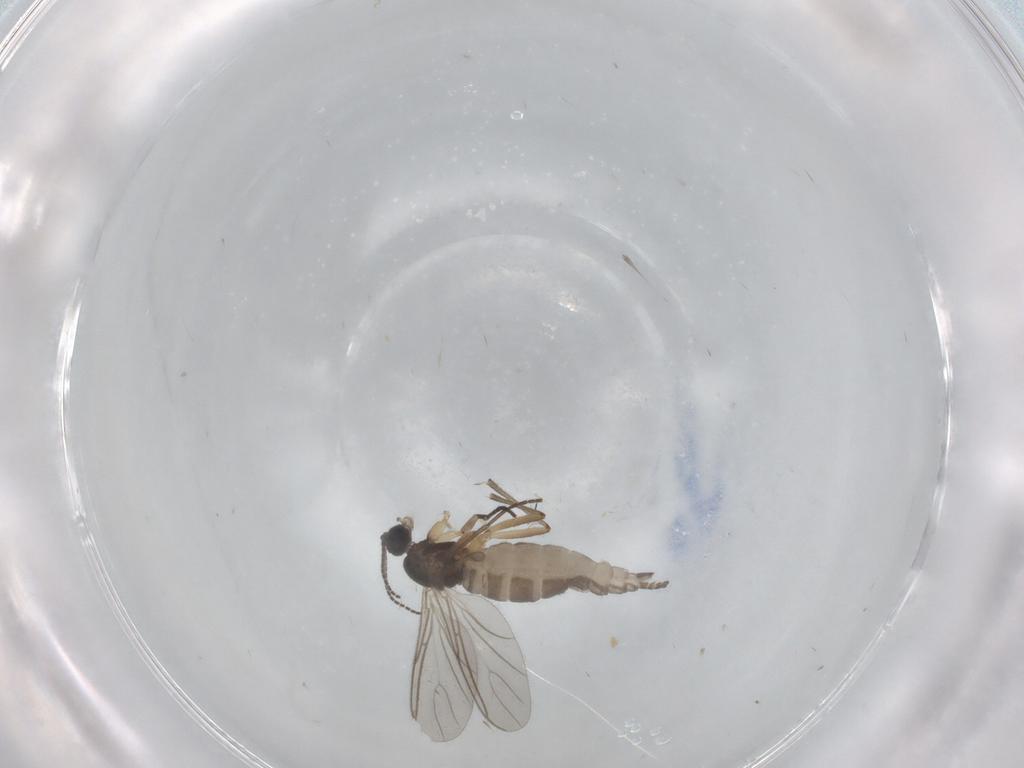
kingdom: Animalia
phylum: Arthropoda
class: Insecta
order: Diptera
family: Sciaridae
